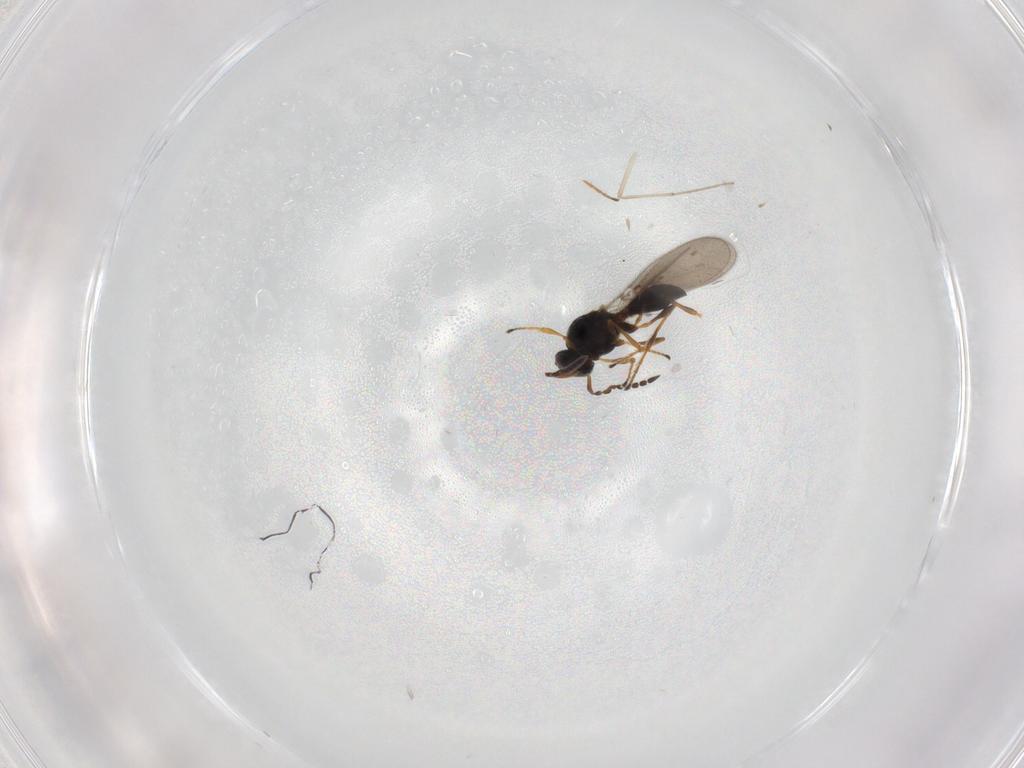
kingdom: Animalia
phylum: Arthropoda
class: Insecta
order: Hymenoptera
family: Platygastridae
